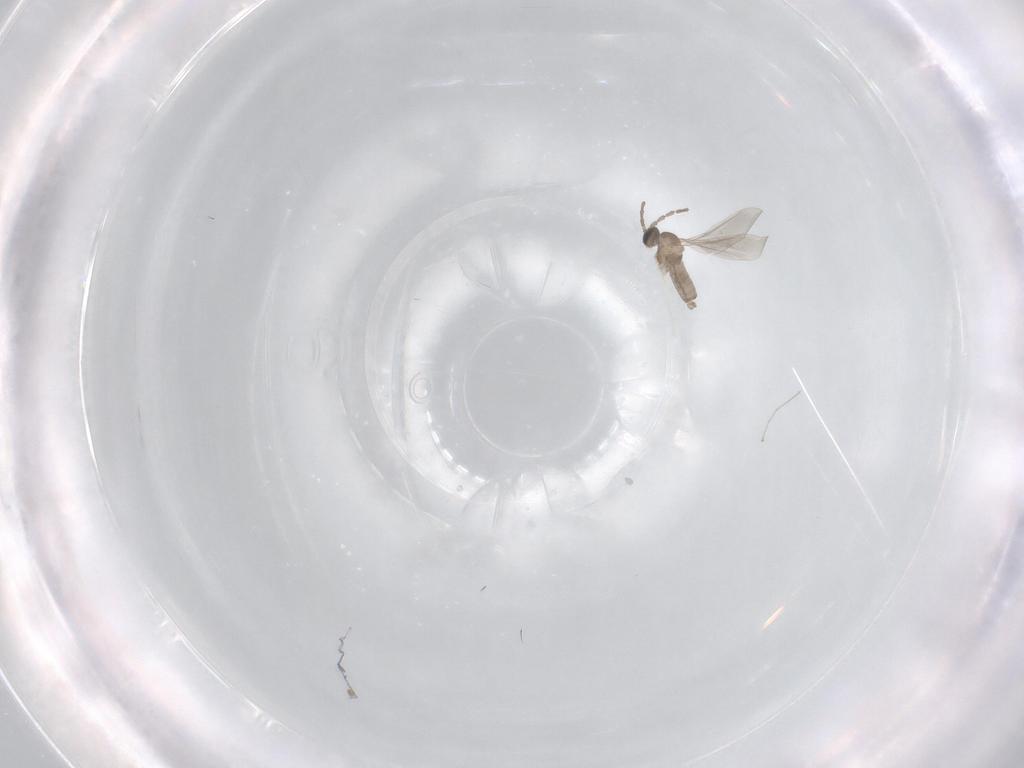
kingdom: Animalia
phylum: Arthropoda
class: Insecta
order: Diptera
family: Cecidomyiidae
